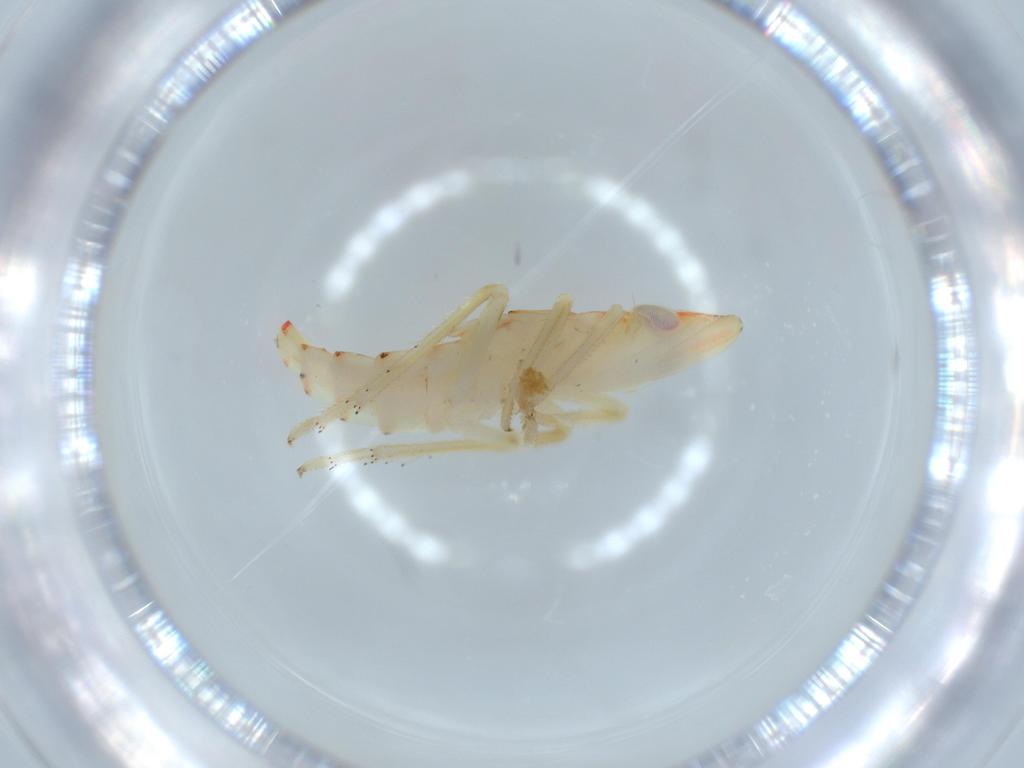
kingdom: Animalia
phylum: Arthropoda
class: Insecta
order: Hemiptera
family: Tropiduchidae
